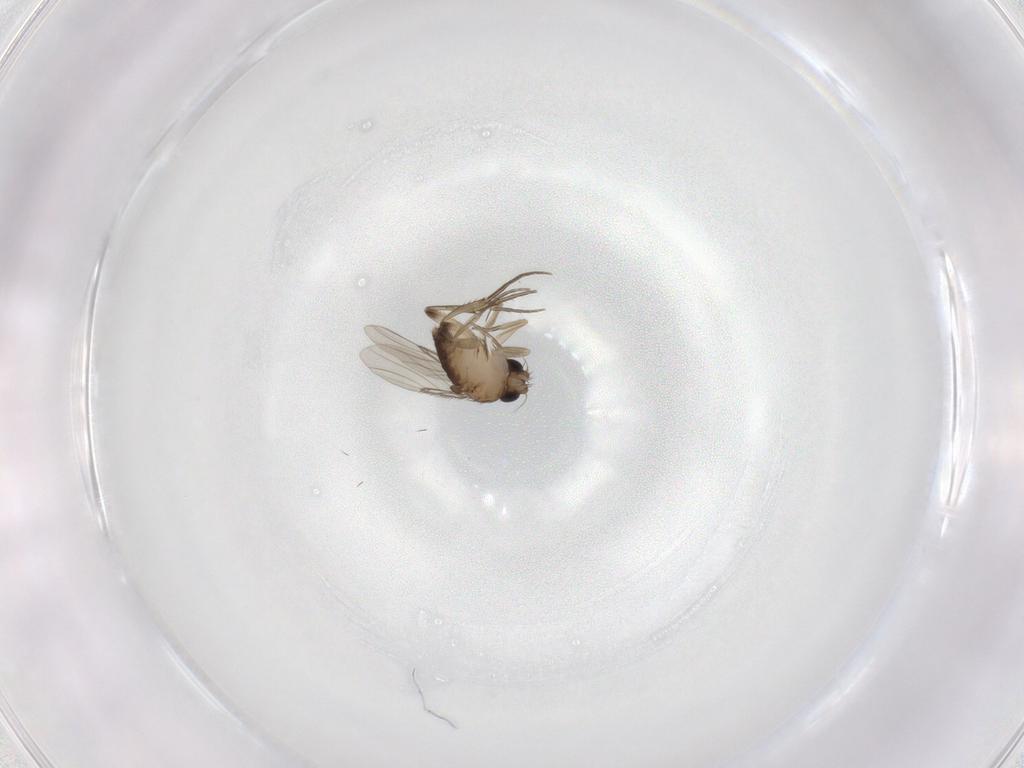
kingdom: Animalia
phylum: Arthropoda
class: Insecta
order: Diptera
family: Phoridae
